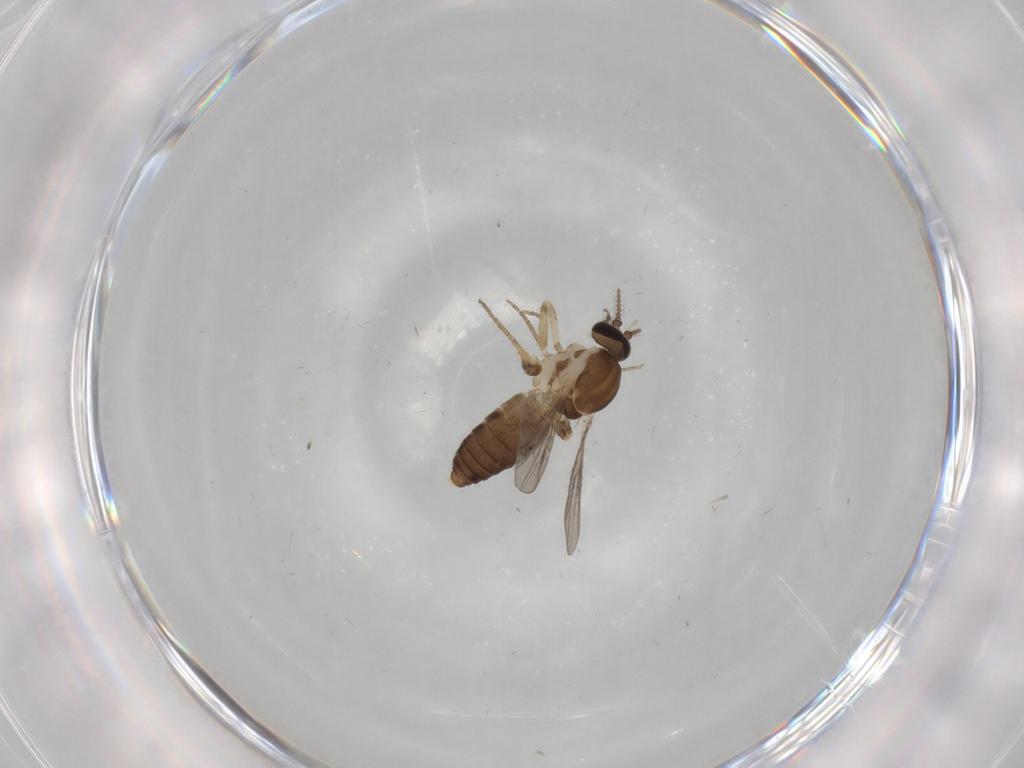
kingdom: Animalia
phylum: Arthropoda
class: Insecta
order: Diptera
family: Ceratopogonidae
